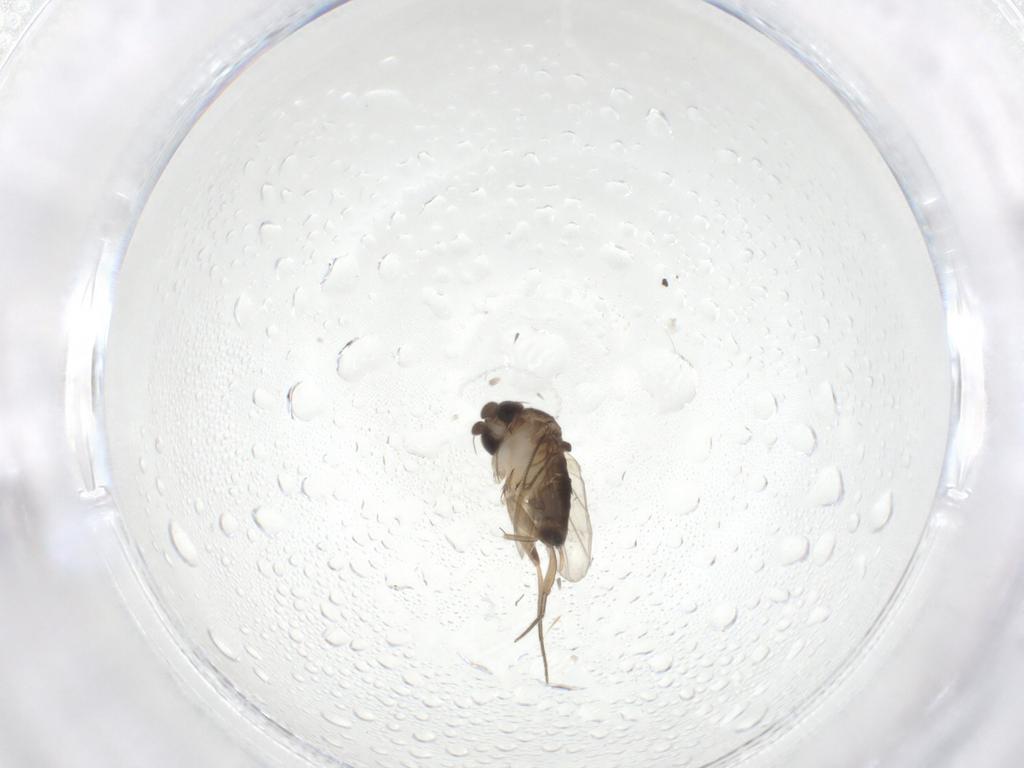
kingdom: Animalia
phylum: Arthropoda
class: Insecta
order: Diptera
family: Phoridae
